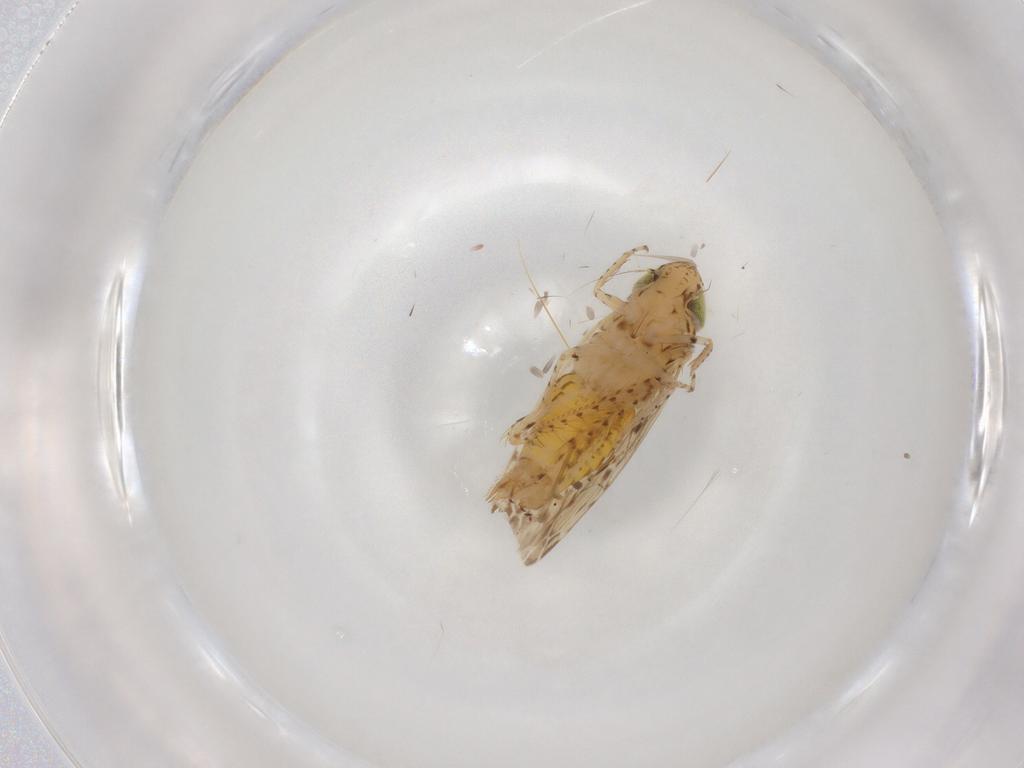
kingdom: Animalia
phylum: Arthropoda
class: Insecta
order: Hemiptera
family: Cicadellidae
